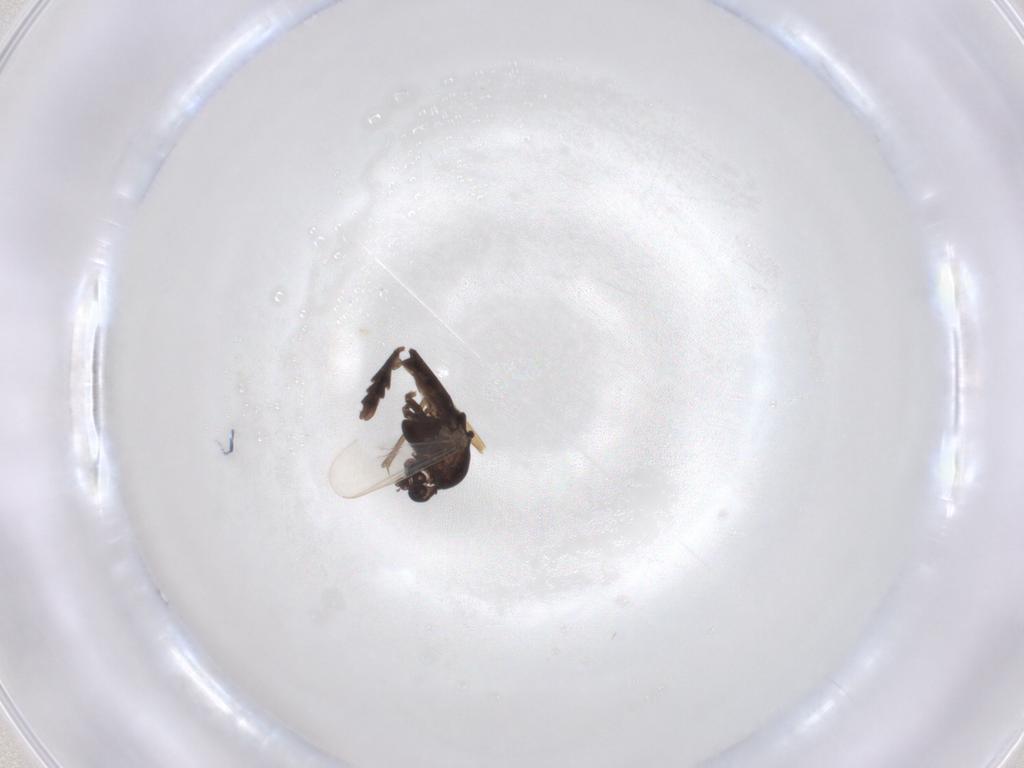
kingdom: Animalia
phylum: Arthropoda
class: Insecta
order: Diptera
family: Chironomidae
